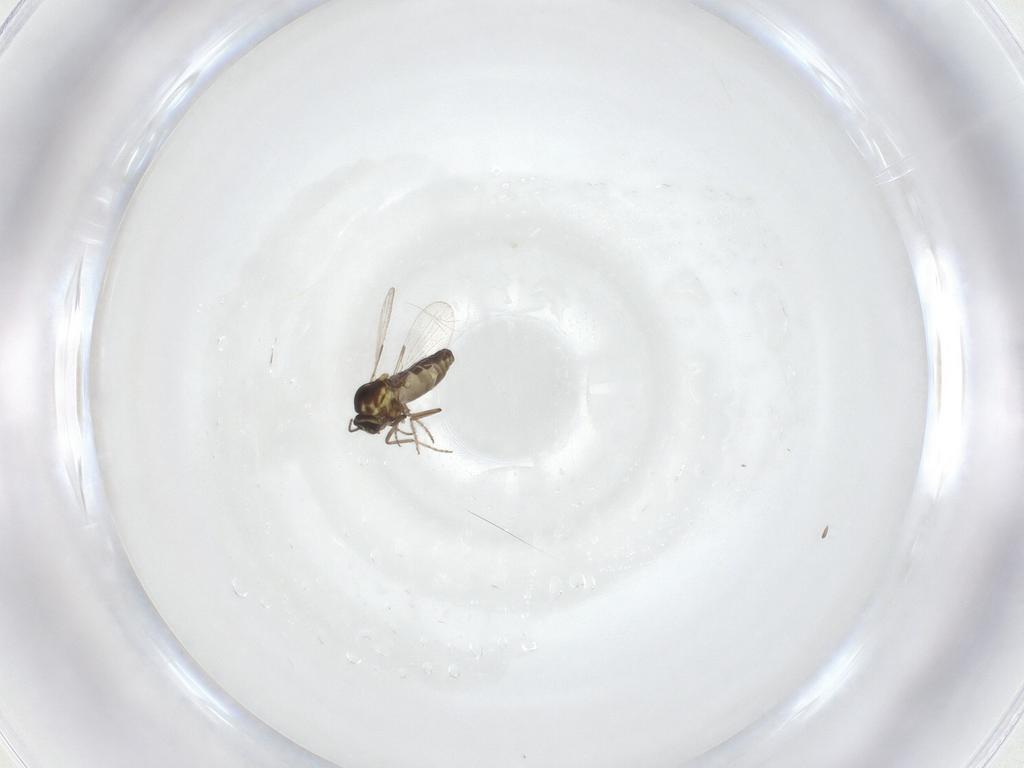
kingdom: Animalia
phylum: Arthropoda
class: Insecta
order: Diptera
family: Ceratopogonidae
